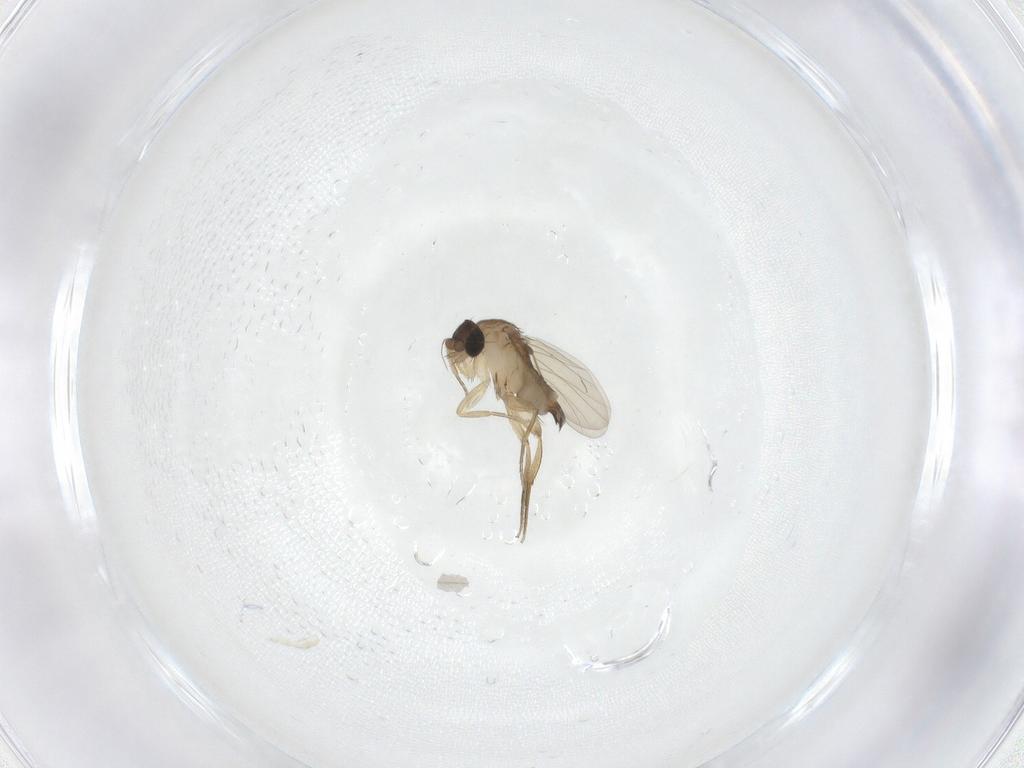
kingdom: Animalia
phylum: Arthropoda
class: Insecta
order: Diptera
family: Phoridae
